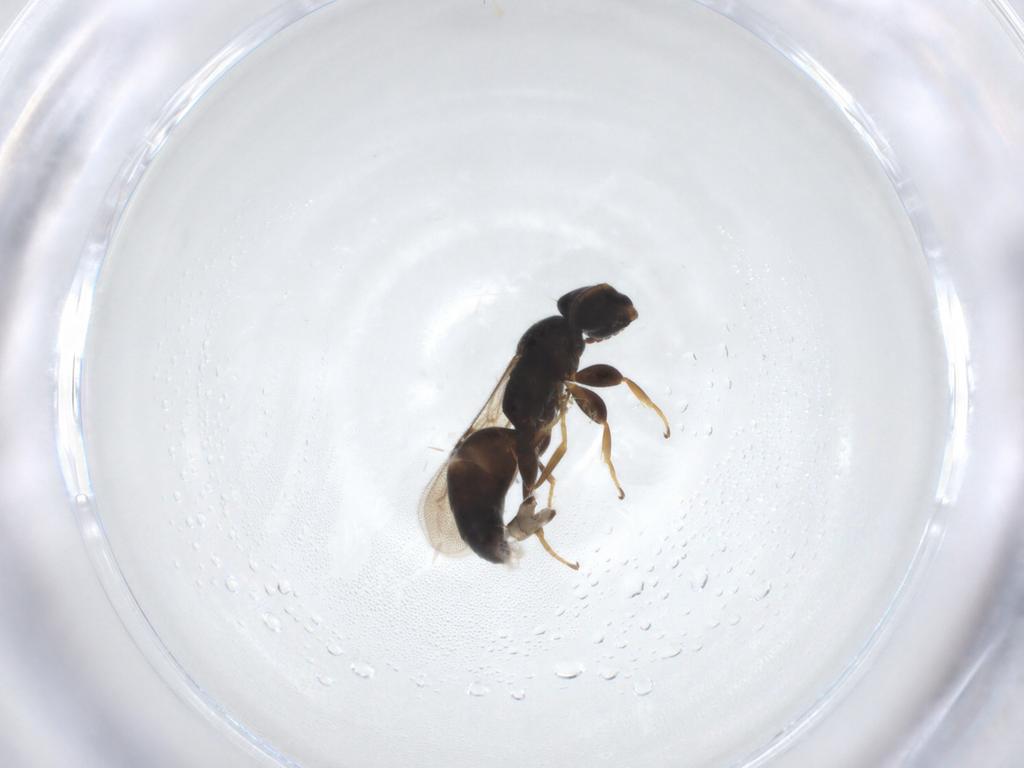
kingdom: Animalia
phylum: Arthropoda
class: Insecta
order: Hymenoptera
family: Bethylidae
